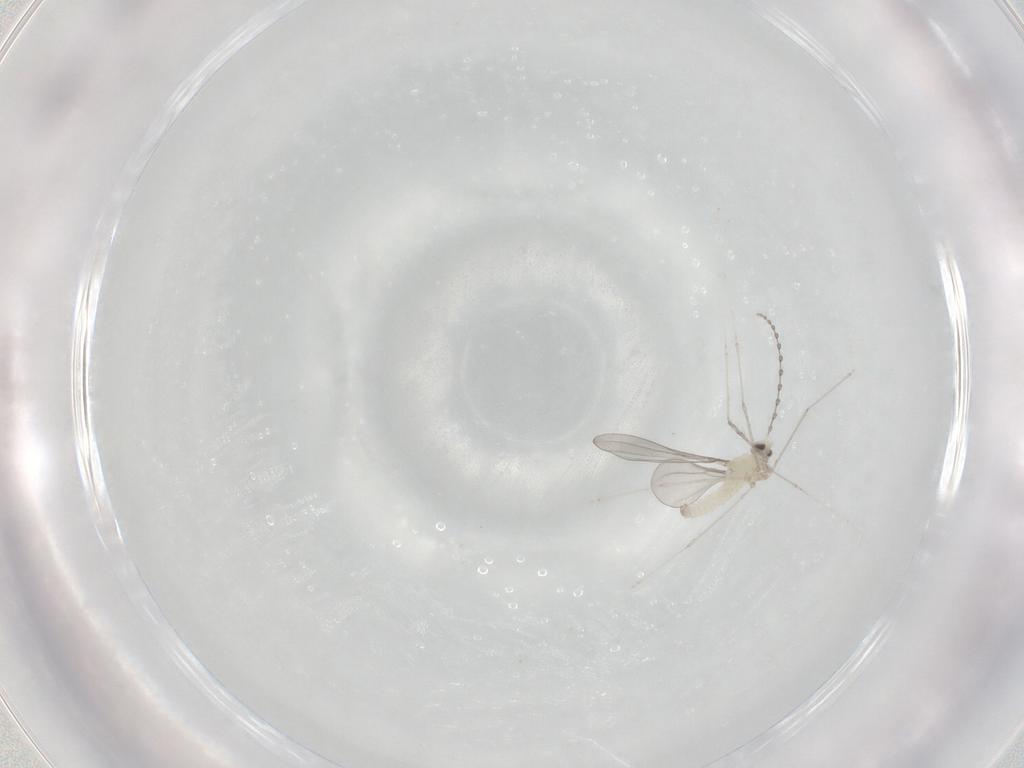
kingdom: Animalia
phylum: Arthropoda
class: Insecta
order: Diptera
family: Cecidomyiidae
